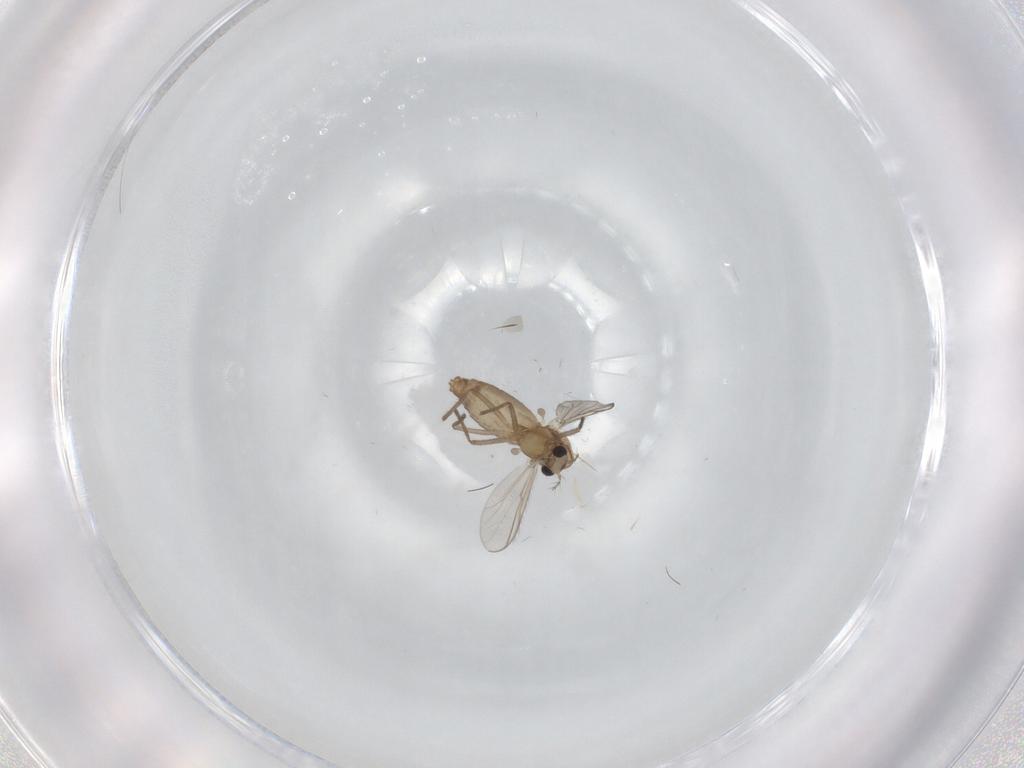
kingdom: Animalia
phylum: Arthropoda
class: Insecta
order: Diptera
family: Chironomidae
